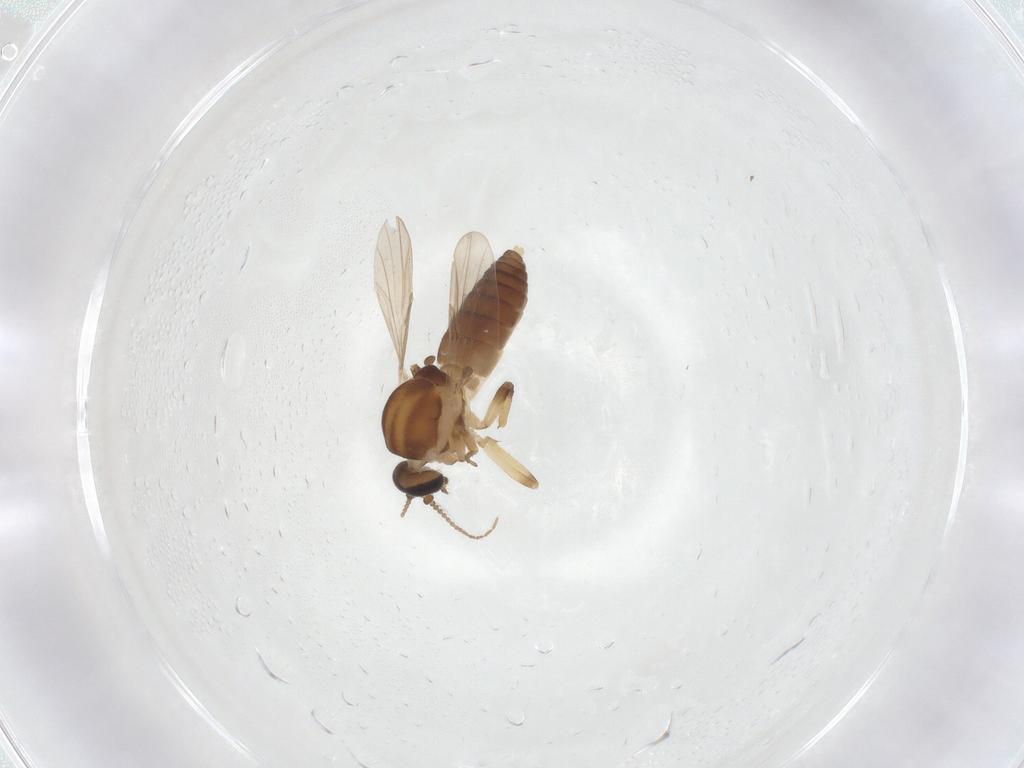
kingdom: Animalia
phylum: Arthropoda
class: Insecta
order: Diptera
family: Ceratopogonidae
